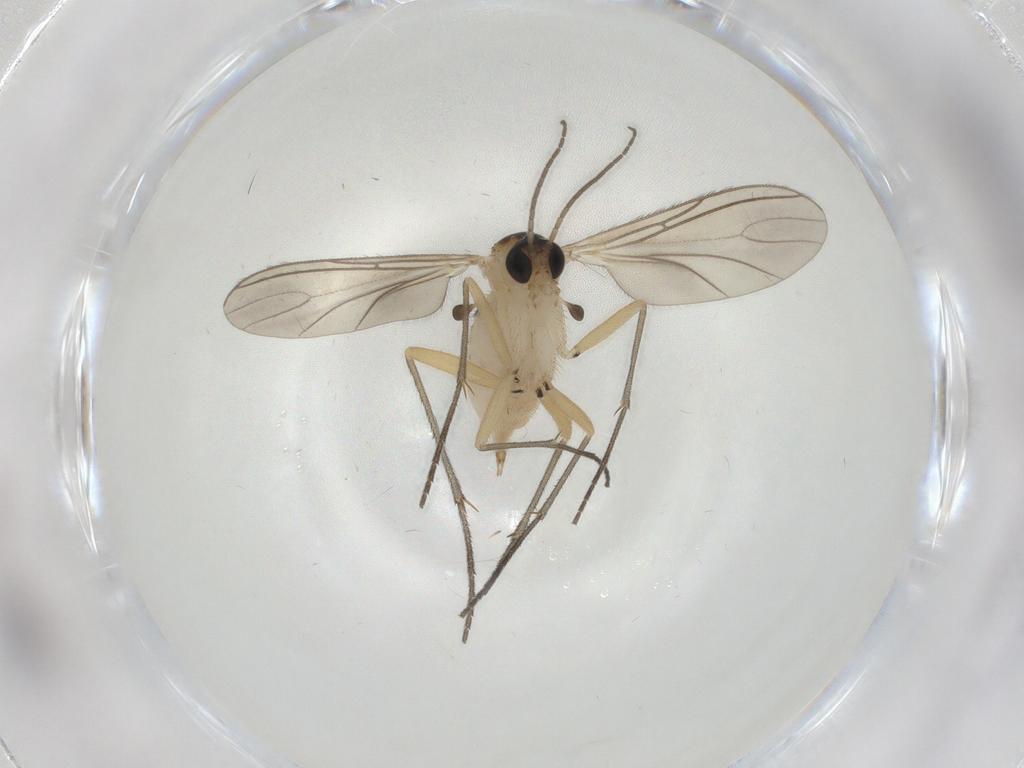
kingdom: Animalia
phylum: Arthropoda
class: Insecta
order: Diptera
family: Sciaridae
